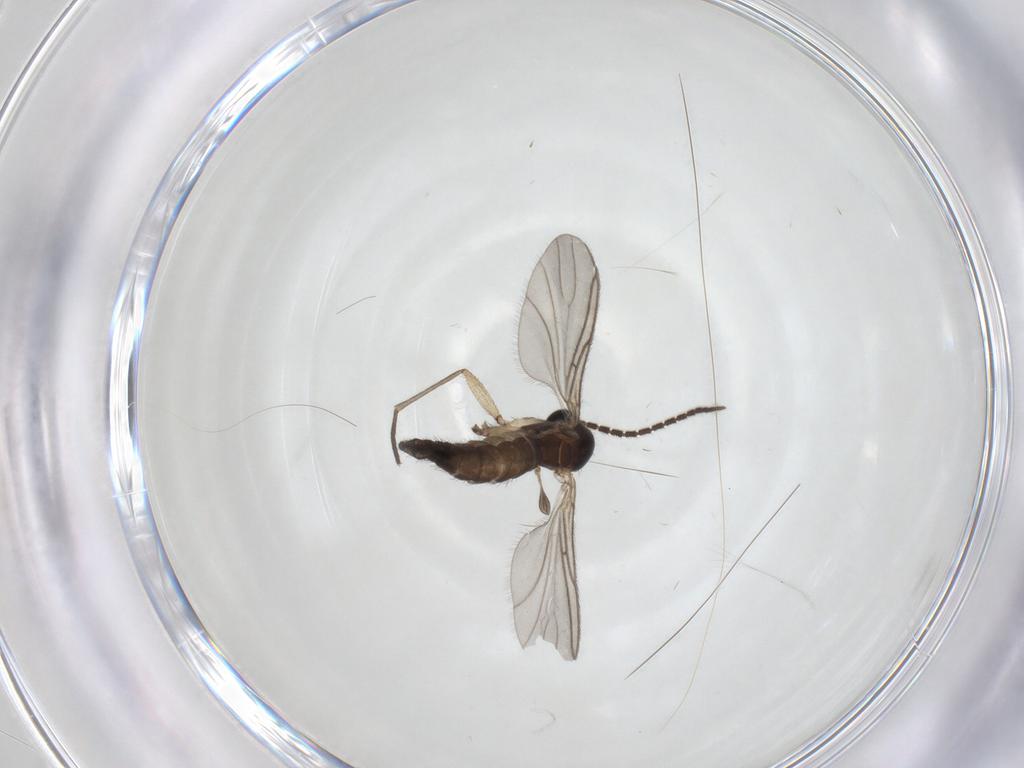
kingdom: Animalia
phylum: Arthropoda
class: Insecta
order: Diptera
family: Sciaridae
